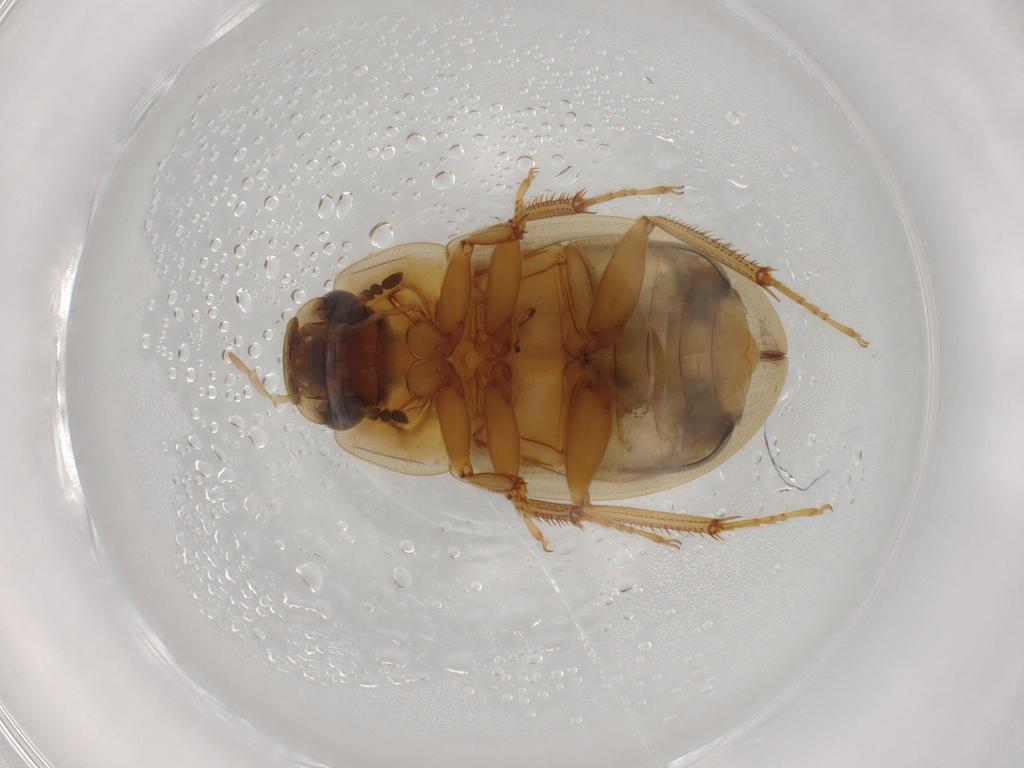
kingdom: Animalia
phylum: Arthropoda
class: Insecta
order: Coleoptera
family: Hydrophilidae
